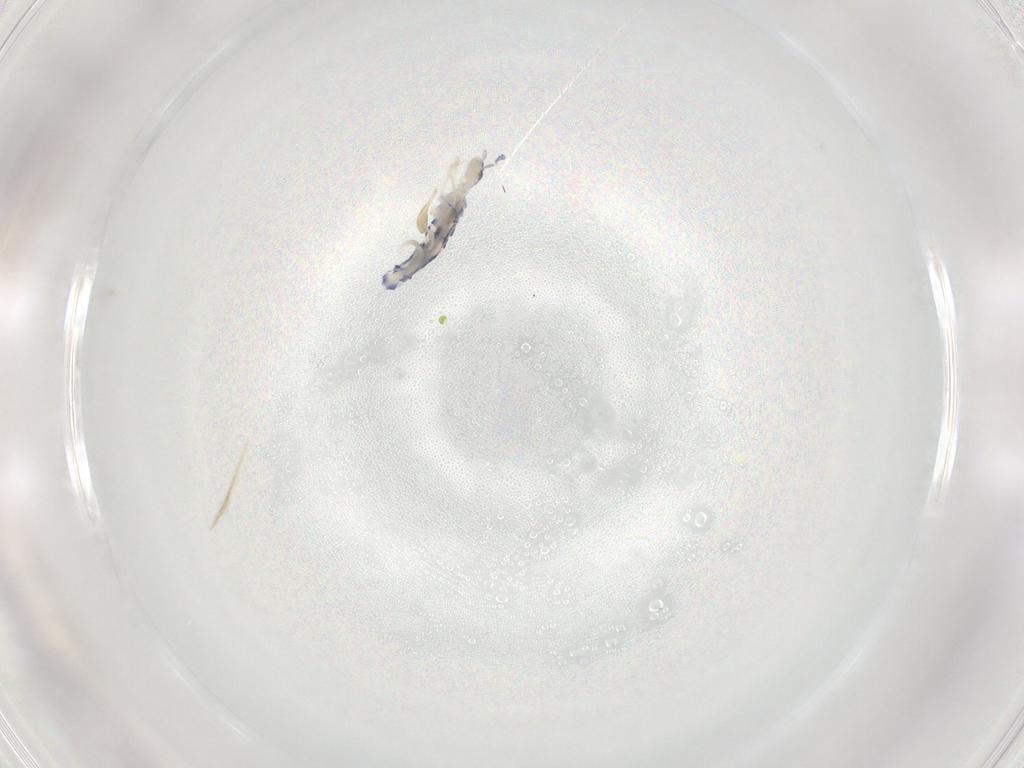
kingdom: Animalia
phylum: Arthropoda
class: Collembola
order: Entomobryomorpha
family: Entomobryidae
